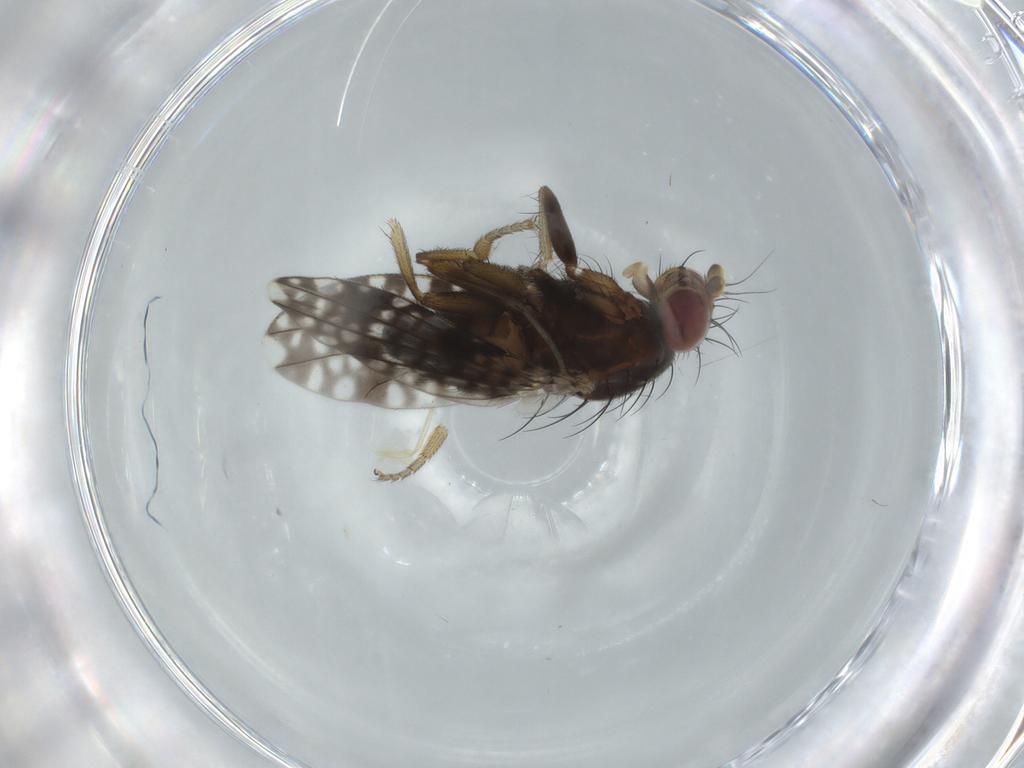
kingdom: Animalia
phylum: Arthropoda
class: Insecta
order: Diptera
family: Tephritidae
